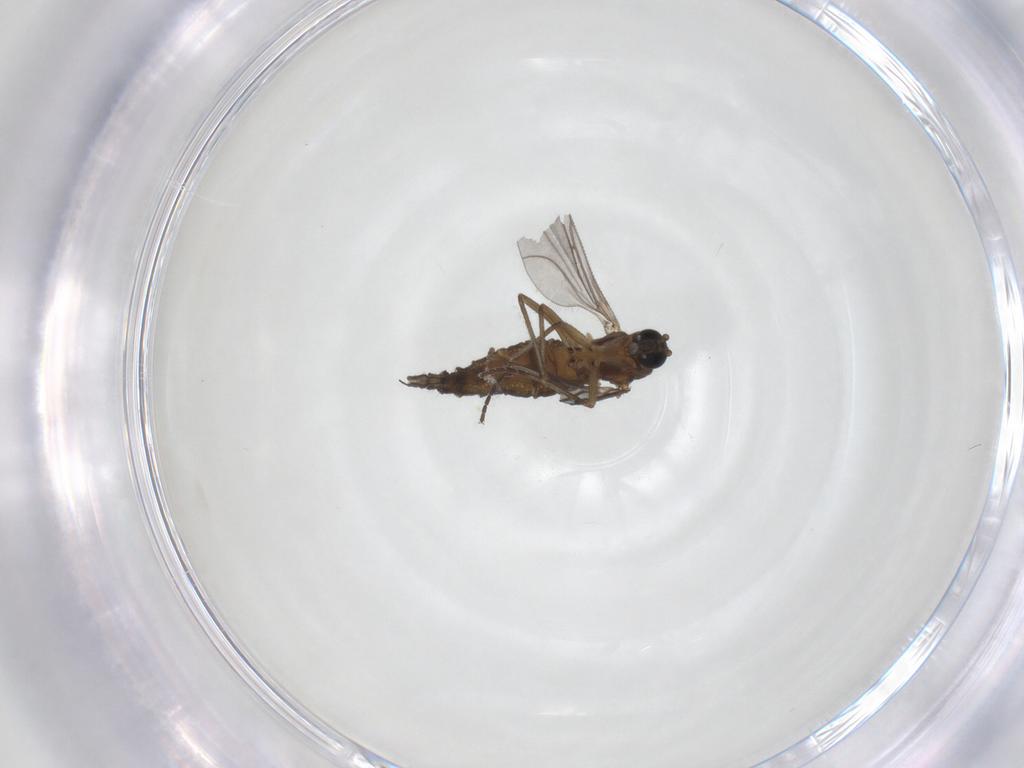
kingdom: Animalia
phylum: Arthropoda
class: Insecta
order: Diptera
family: Sciaridae
